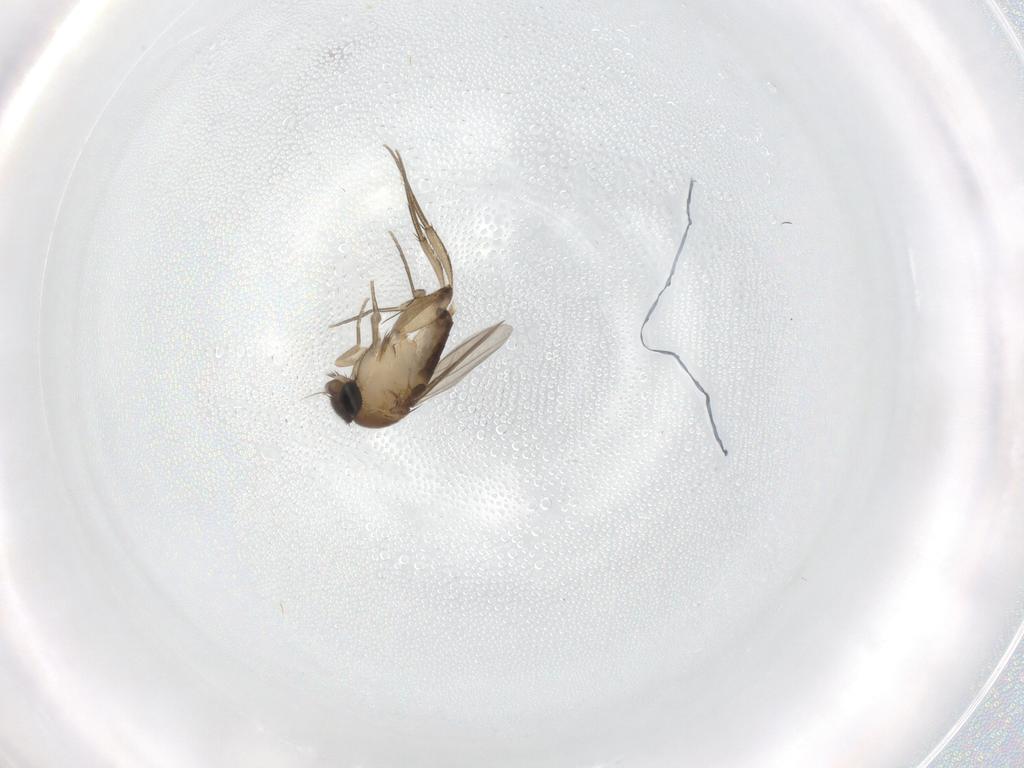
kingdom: Animalia
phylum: Arthropoda
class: Insecta
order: Diptera
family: Phoridae
